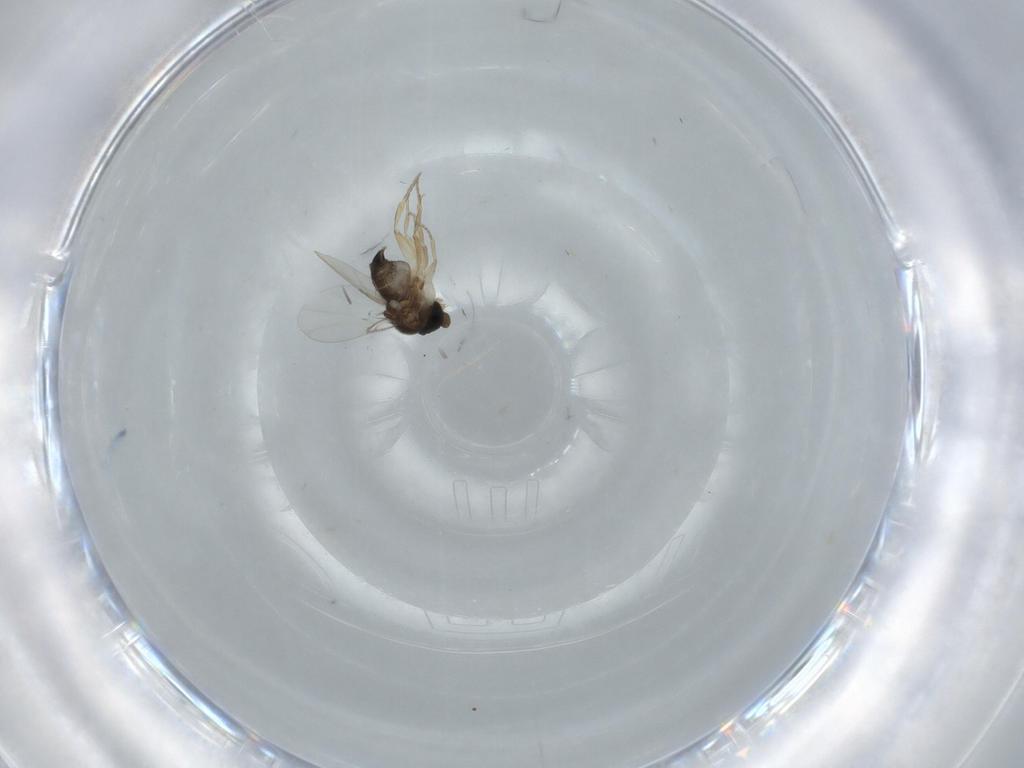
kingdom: Animalia
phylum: Arthropoda
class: Insecta
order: Diptera
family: Phoridae
